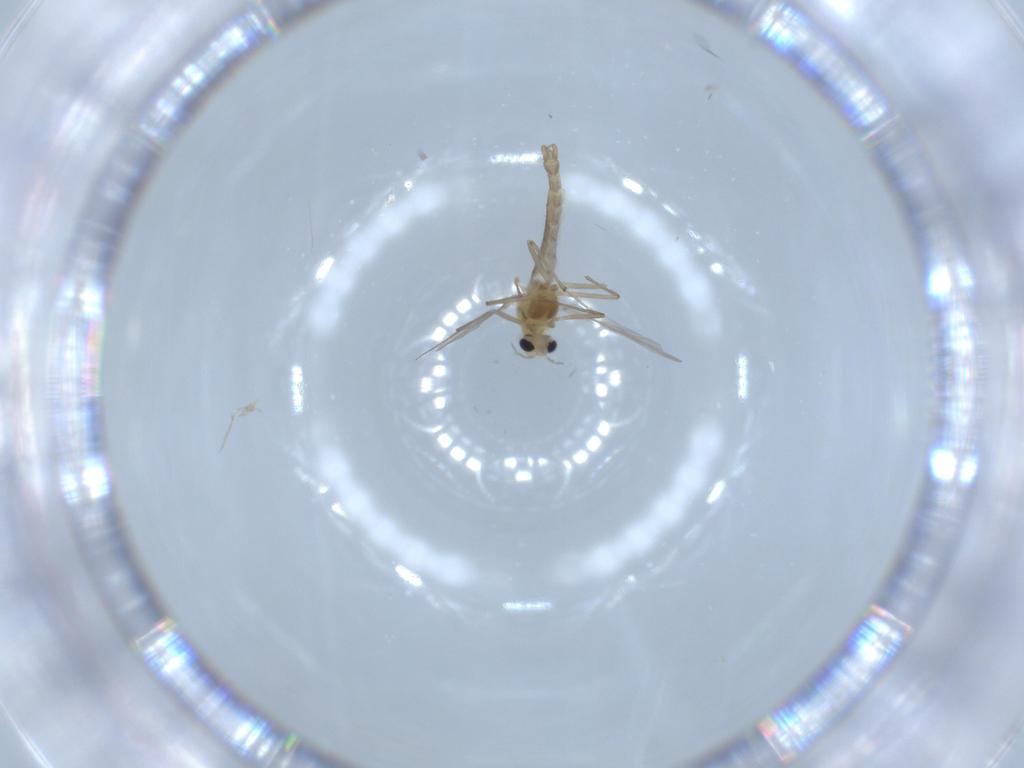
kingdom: Animalia
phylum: Arthropoda
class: Insecta
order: Diptera
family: Chironomidae
